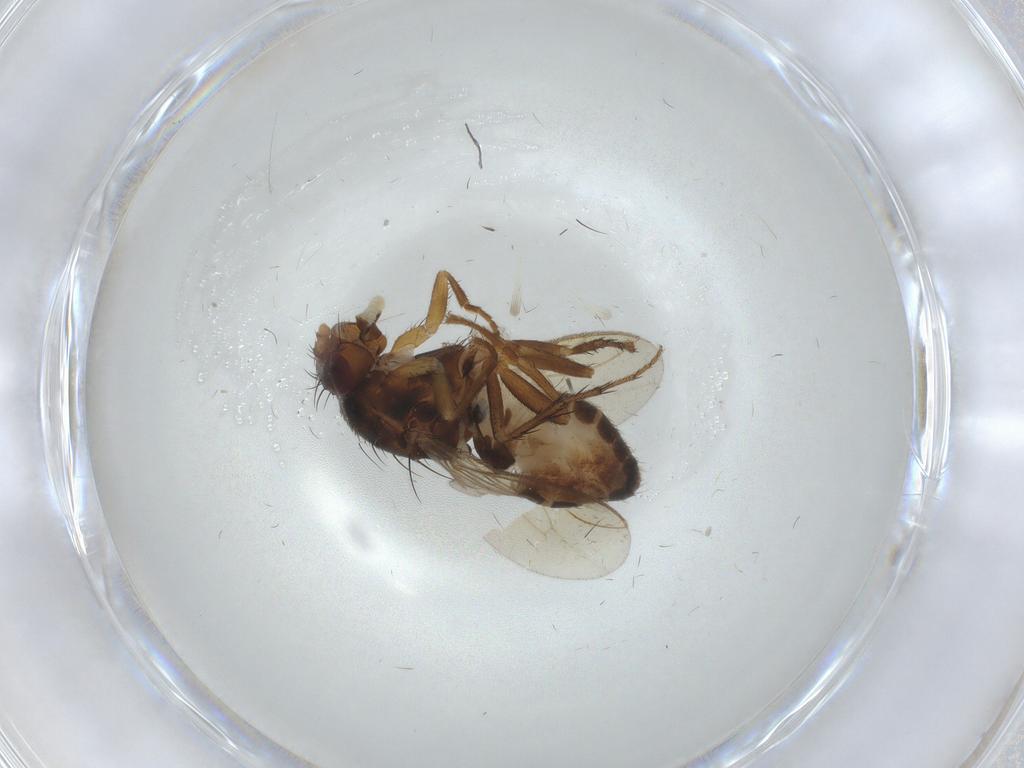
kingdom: Animalia
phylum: Arthropoda
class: Insecta
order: Diptera
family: Sphaeroceridae
